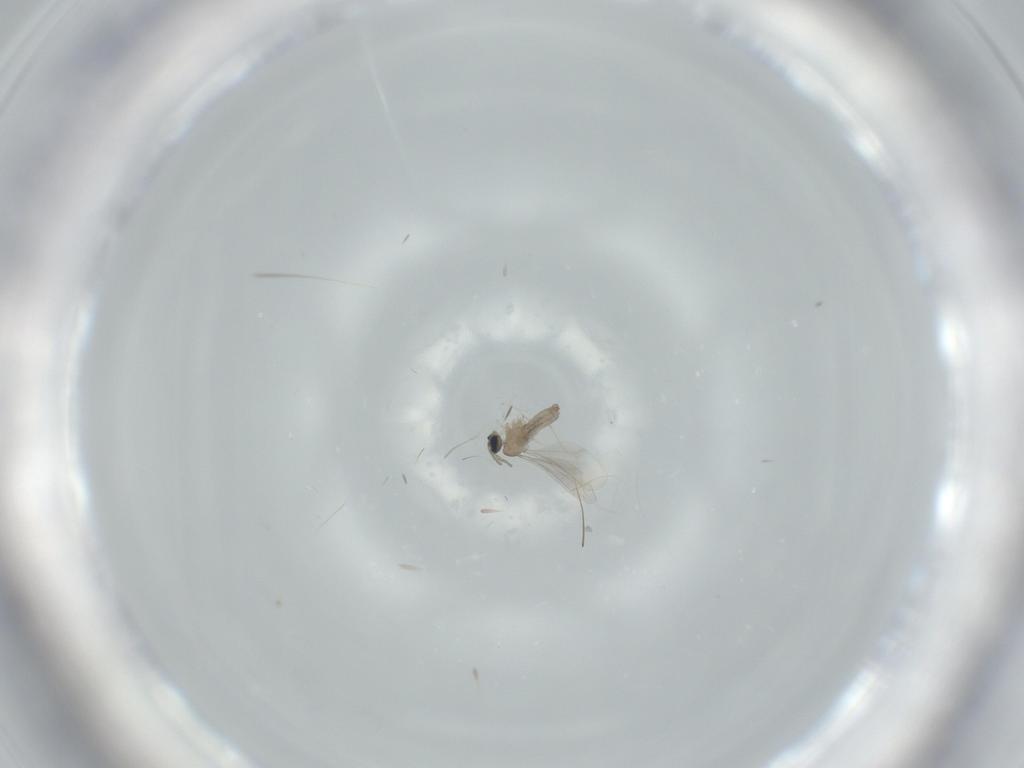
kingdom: Animalia
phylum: Arthropoda
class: Insecta
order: Diptera
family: Cecidomyiidae
